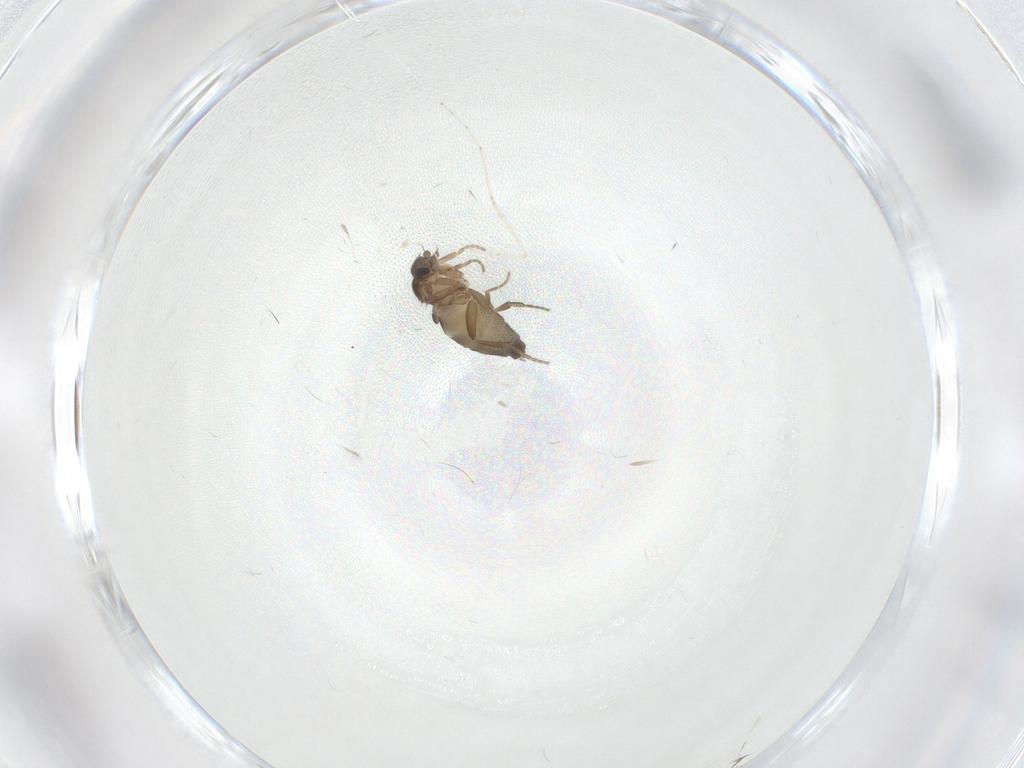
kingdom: Animalia
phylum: Arthropoda
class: Insecta
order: Diptera
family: Cecidomyiidae
